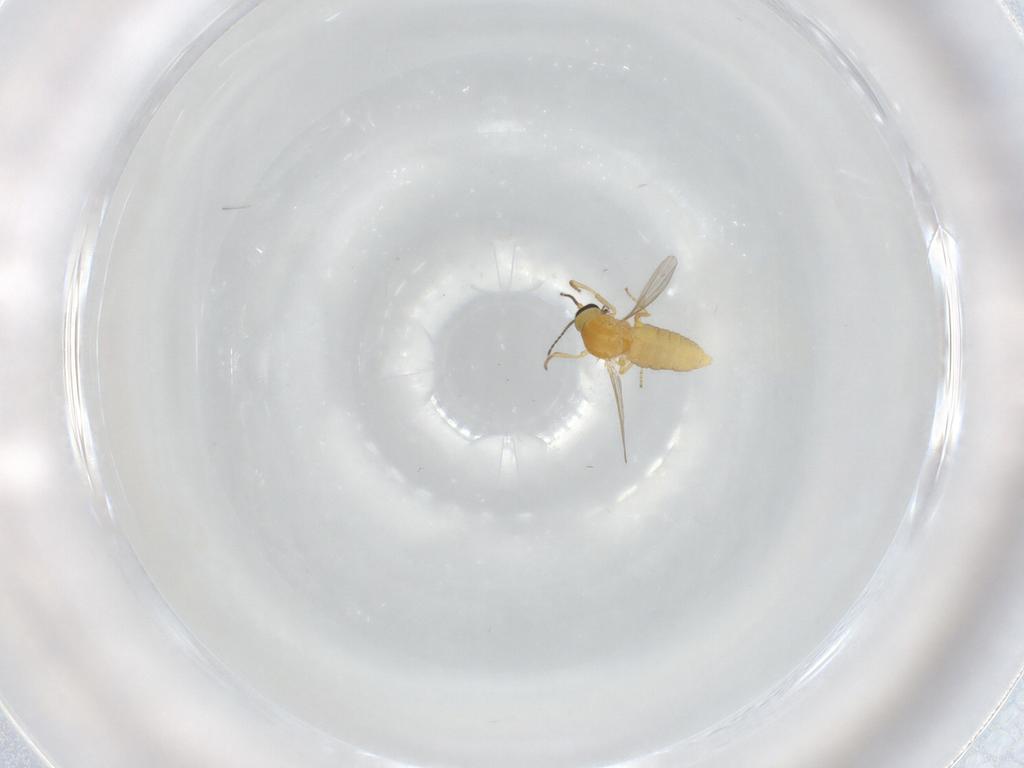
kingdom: Animalia
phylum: Arthropoda
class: Insecta
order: Diptera
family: Ceratopogonidae
